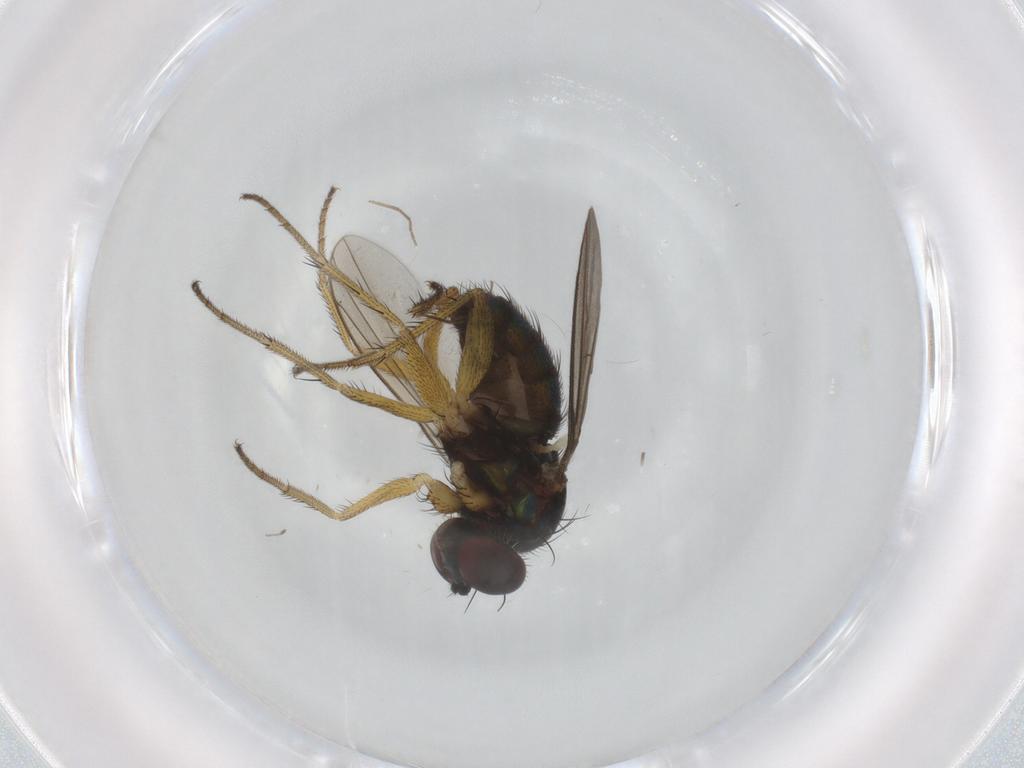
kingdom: Animalia
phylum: Arthropoda
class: Insecta
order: Diptera
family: Dolichopodidae
